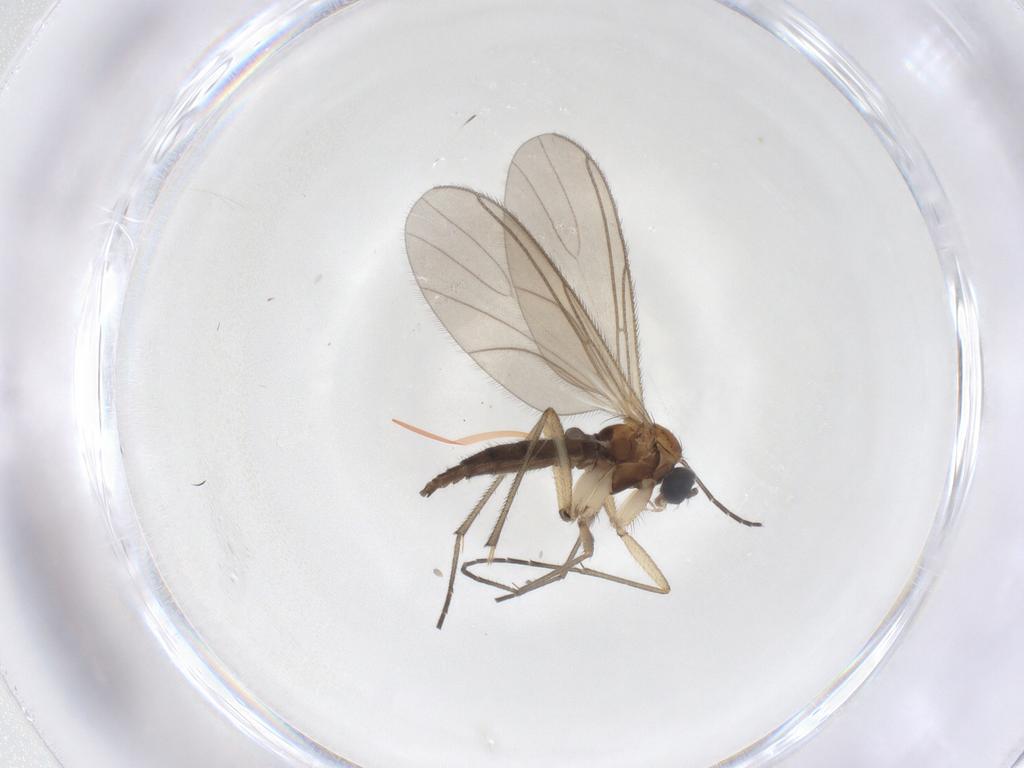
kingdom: Animalia
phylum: Arthropoda
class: Insecta
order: Diptera
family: Sciaridae
